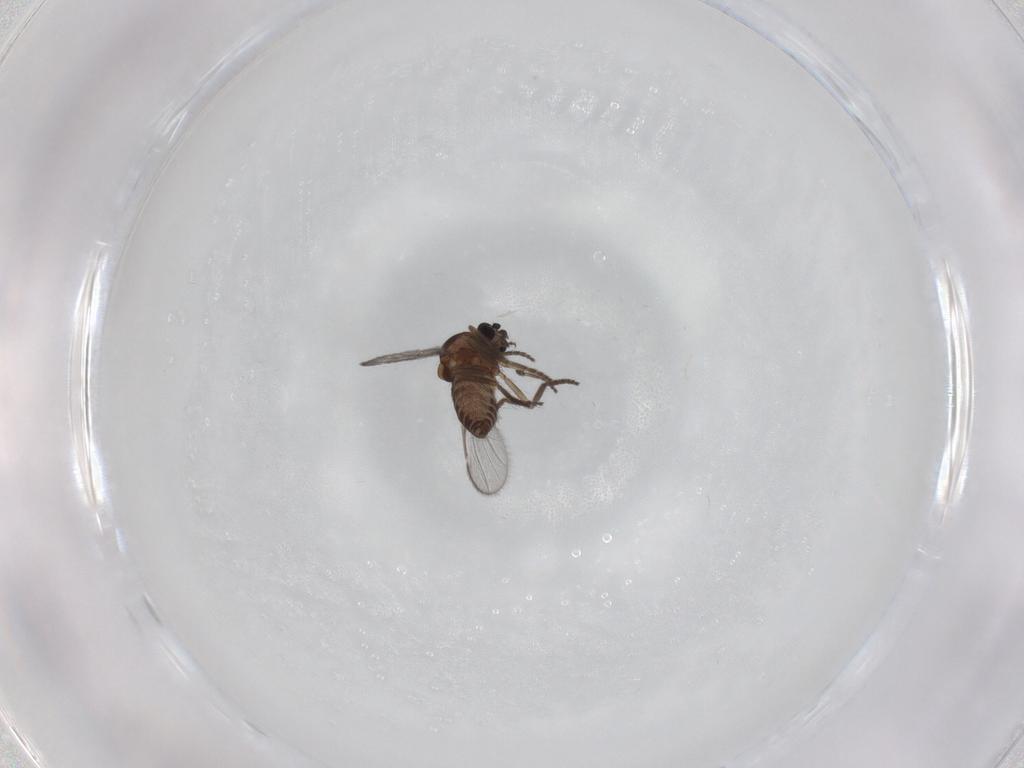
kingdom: Animalia
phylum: Arthropoda
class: Insecta
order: Diptera
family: Chironomidae
